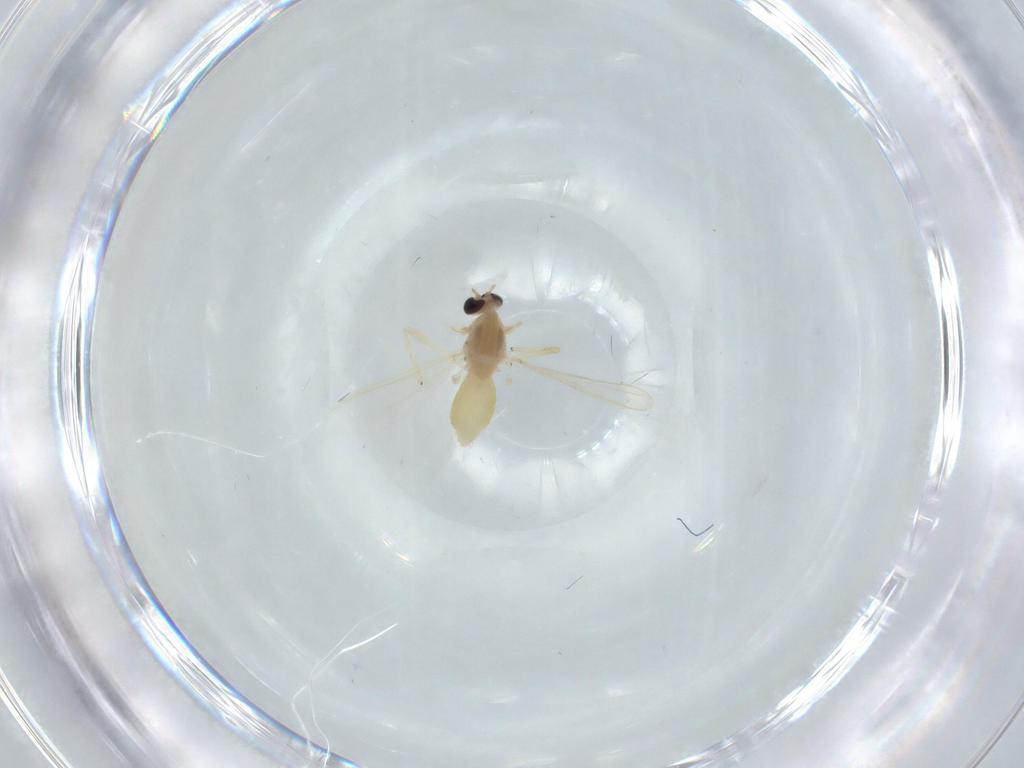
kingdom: Animalia
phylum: Arthropoda
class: Insecta
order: Diptera
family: Chironomidae
